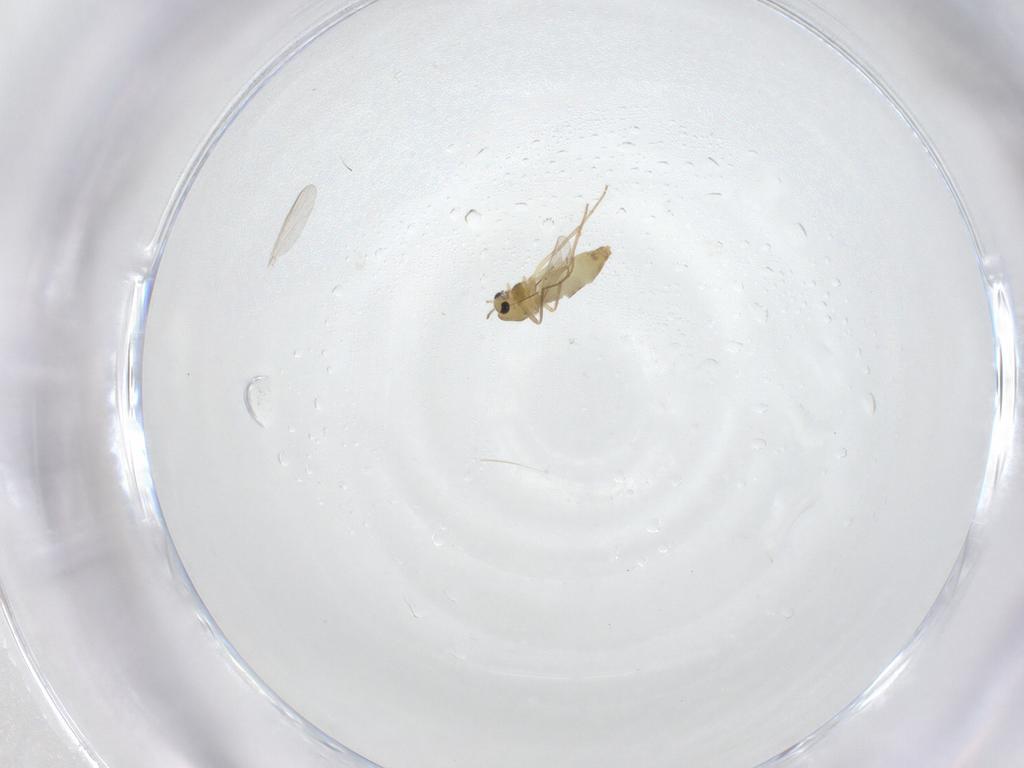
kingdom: Animalia
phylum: Arthropoda
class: Insecta
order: Diptera
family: Chironomidae
